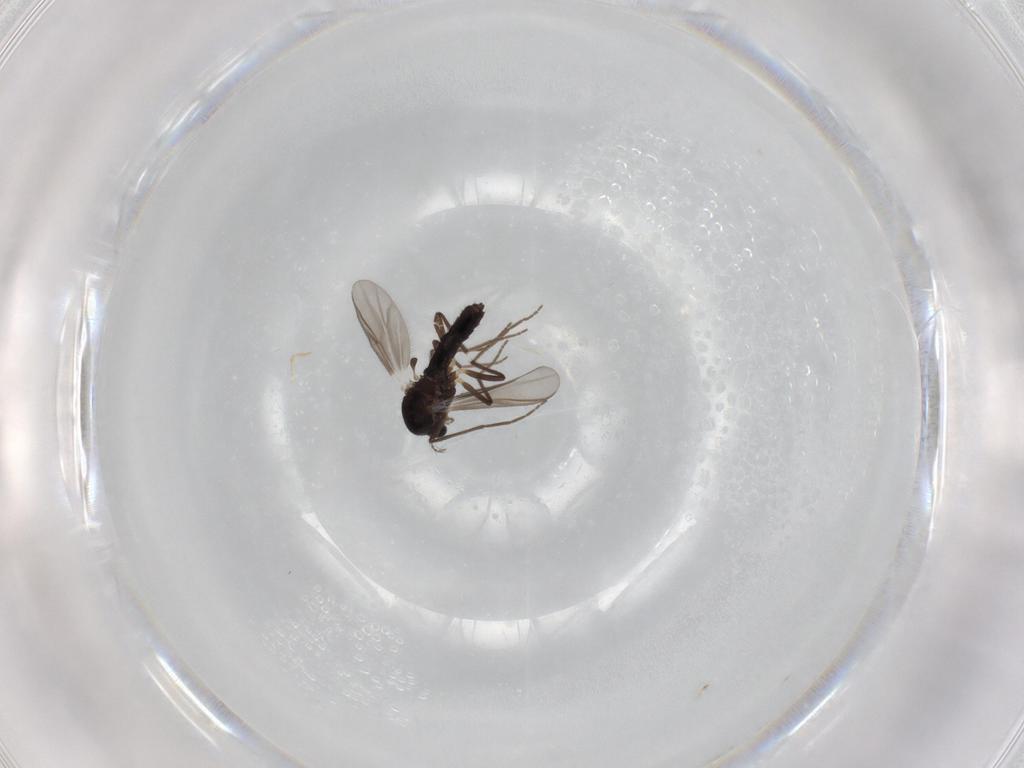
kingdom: Animalia
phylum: Arthropoda
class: Insecta
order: Diptera
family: Chironomidae
